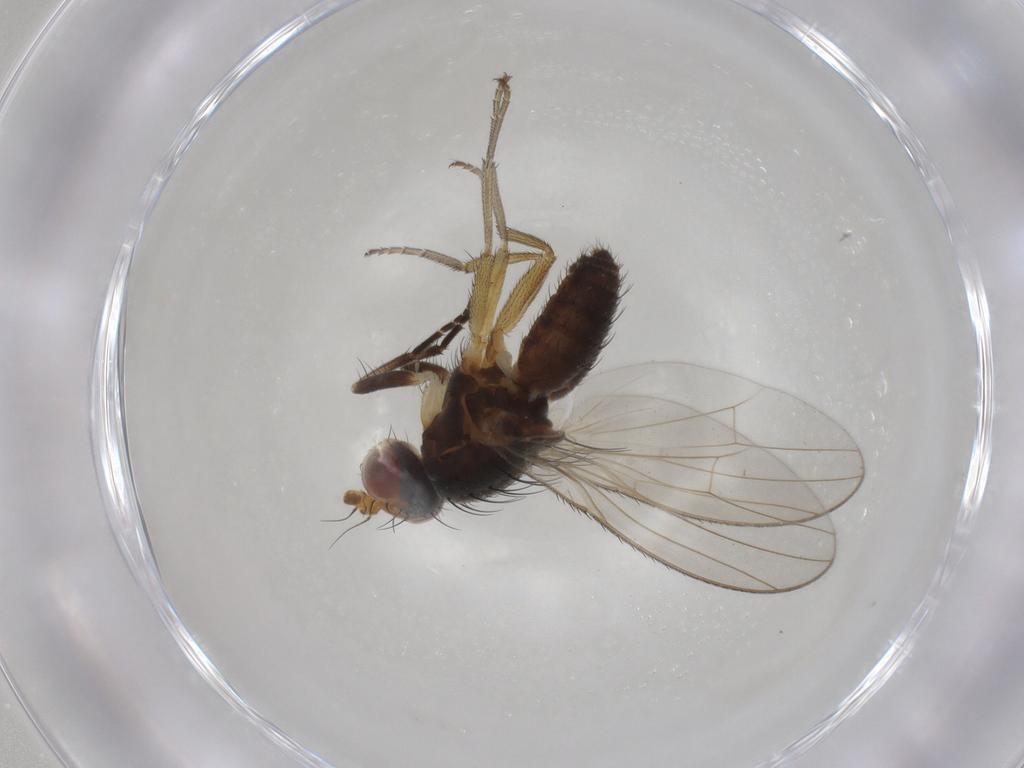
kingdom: Animalia
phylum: Arthropoda
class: Insecta
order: Diptera
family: Heleomyzidae
